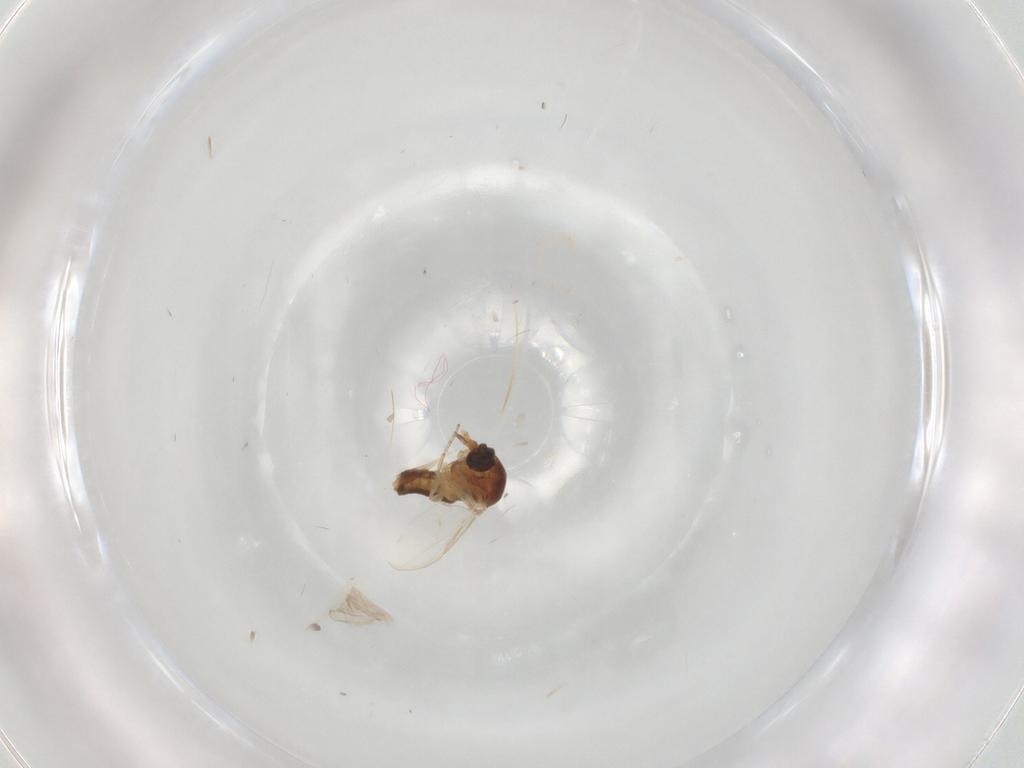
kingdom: Animalia
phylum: Arthropoda
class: Insecta
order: Diptera
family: Ceratopogonidae
